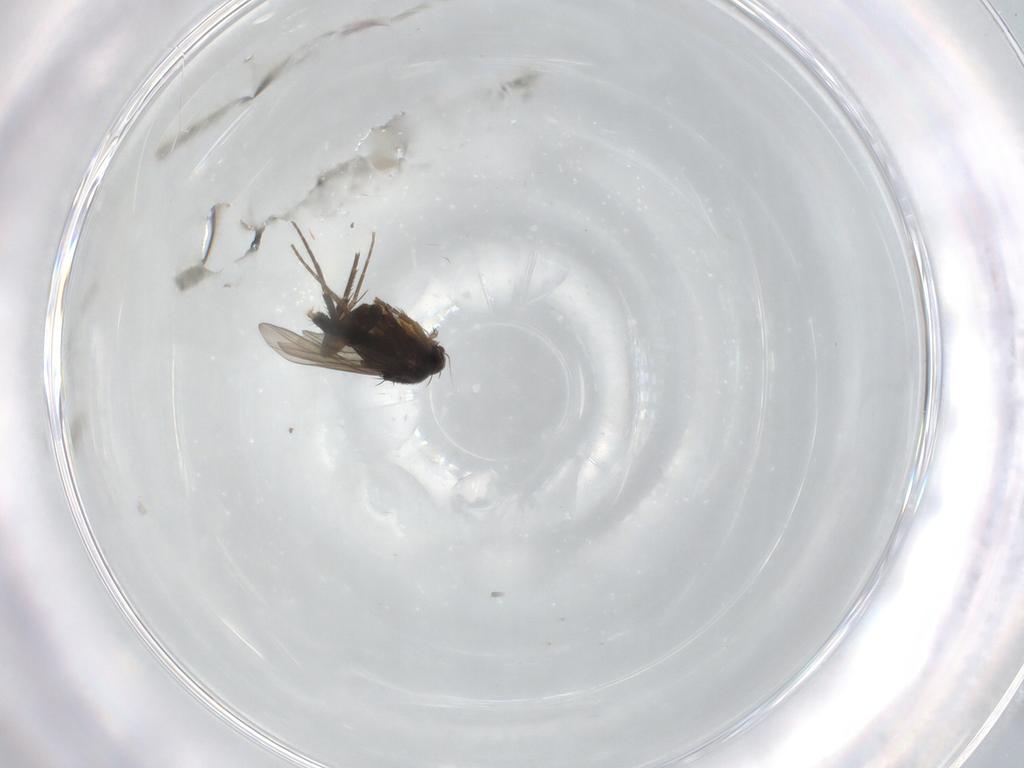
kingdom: Animalia
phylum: Arthropoda
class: Insecta
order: Diptera
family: Phoridae
